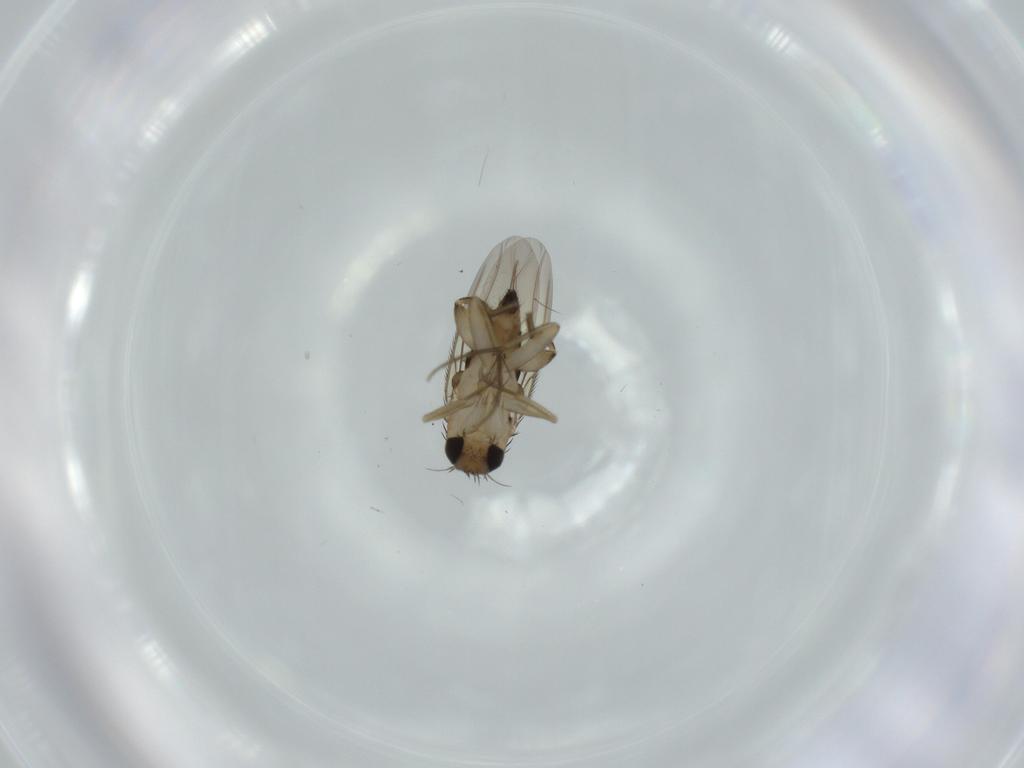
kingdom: Animalia
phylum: Arthropoda
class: Insecta
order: Diptera
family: Phoridae
